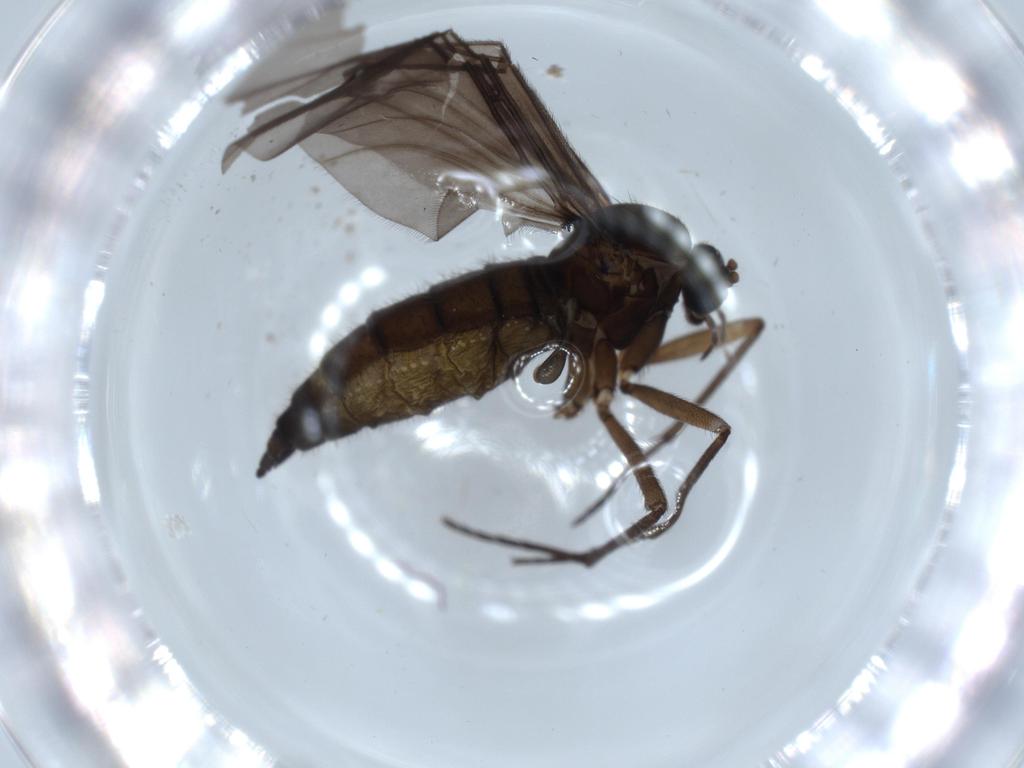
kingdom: Animalia
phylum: Arthropoda
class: Insecta
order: Diptera
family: Sciaridae
